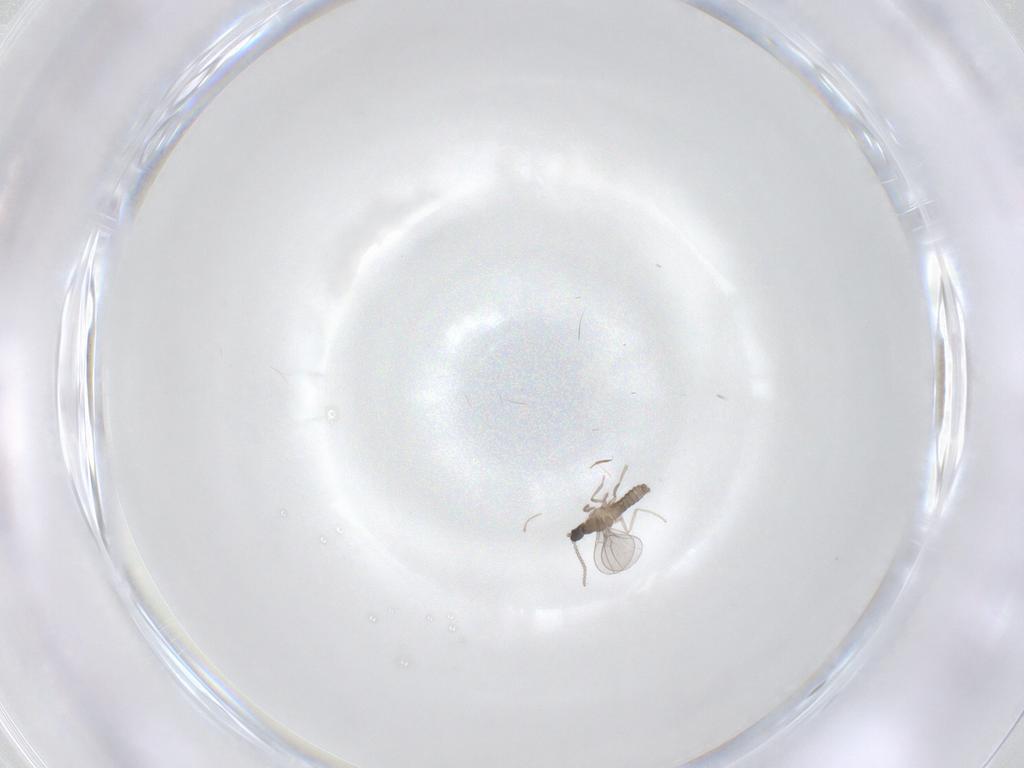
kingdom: Animalia
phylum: Arthropoda
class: Insecta
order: Diptera
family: Cecidomyiidae
